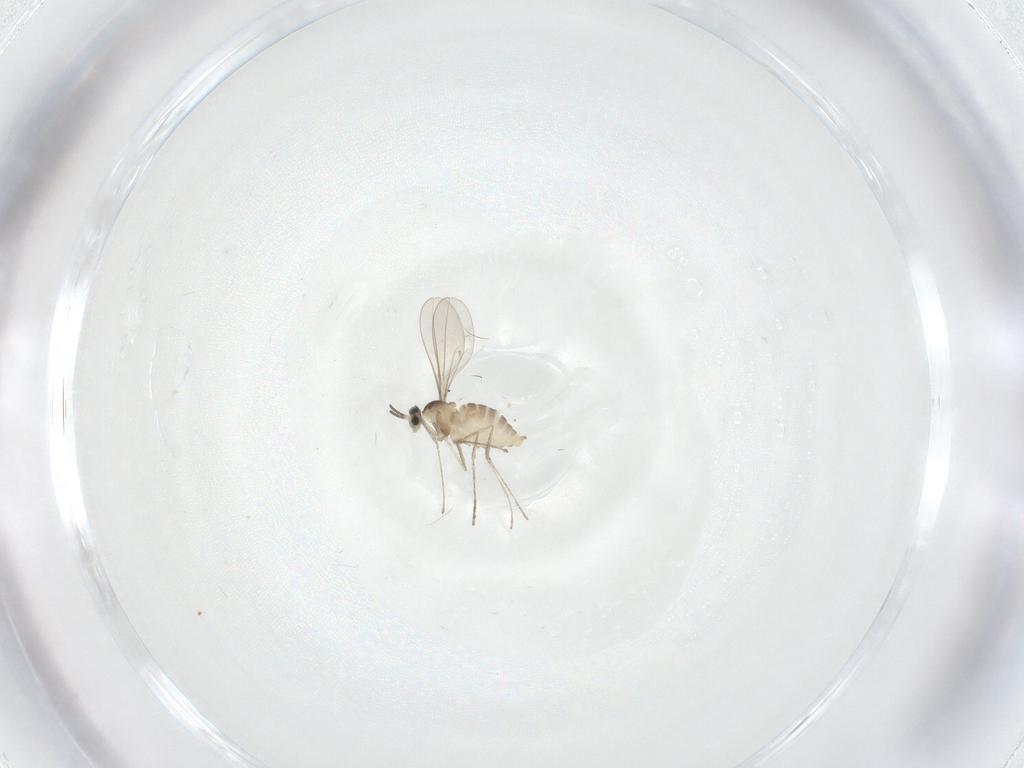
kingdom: Animalia
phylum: Arthropoda
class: Insecta
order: Diptera
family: Cecidomyiidae
